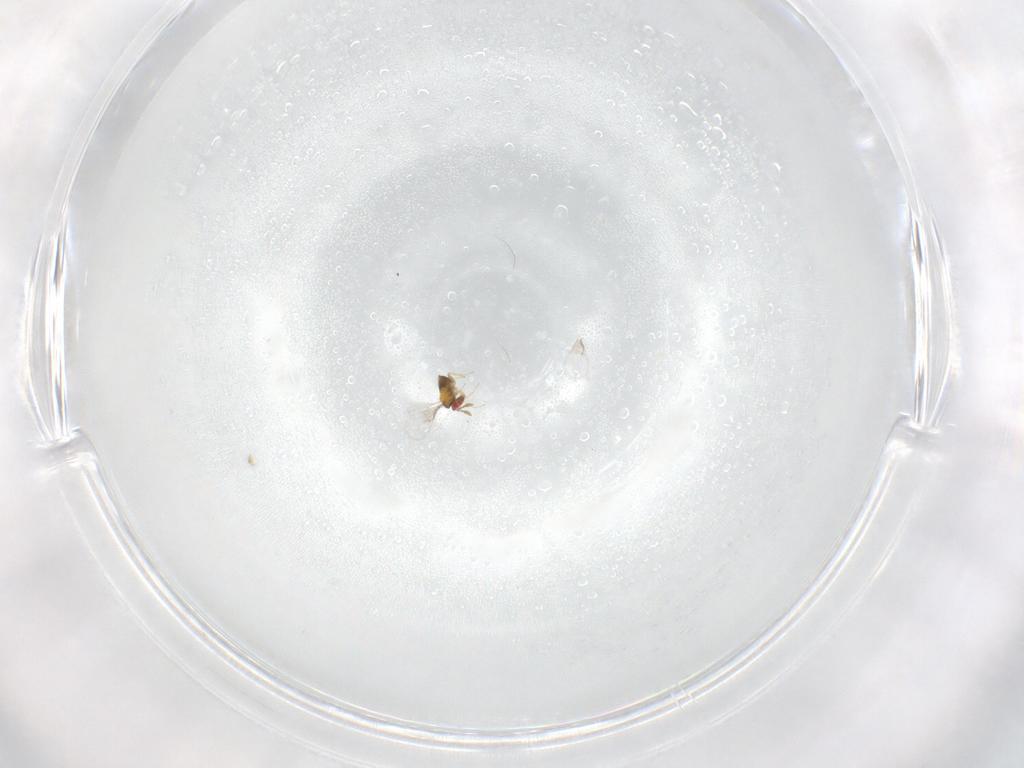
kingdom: Animalia
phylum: Arthropoda
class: Insecta
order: Hymenoptera
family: Trichogrammatidae
